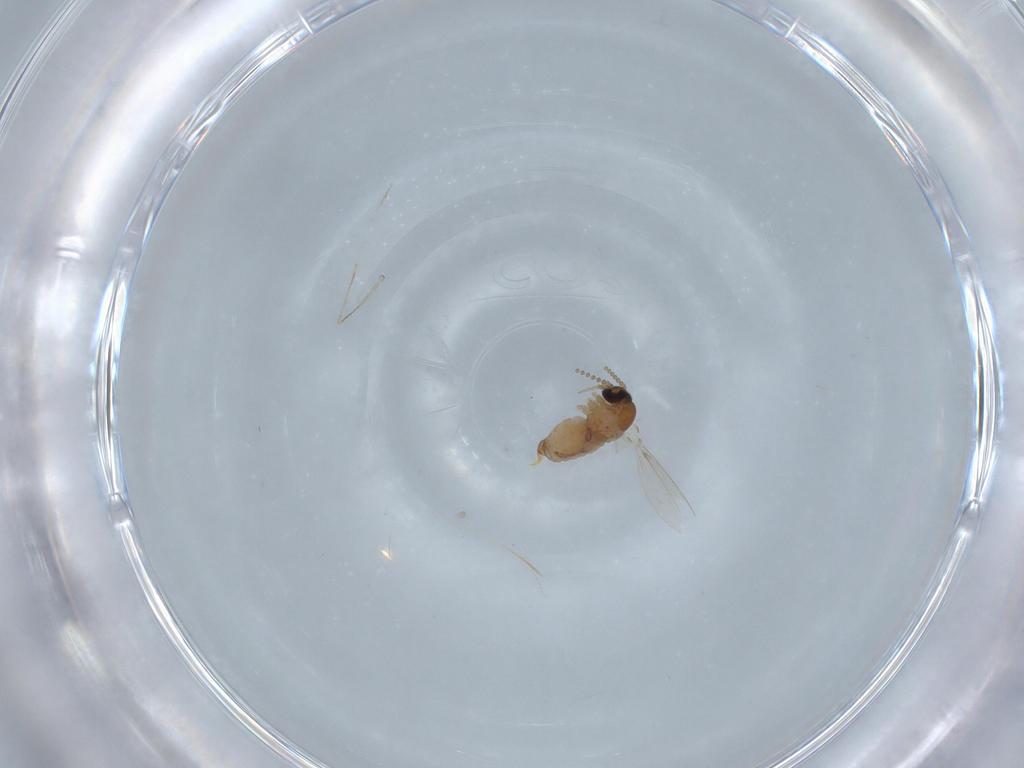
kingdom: Animalia
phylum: Arthropoda
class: Insecta
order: Diptera
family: Psychodidae
